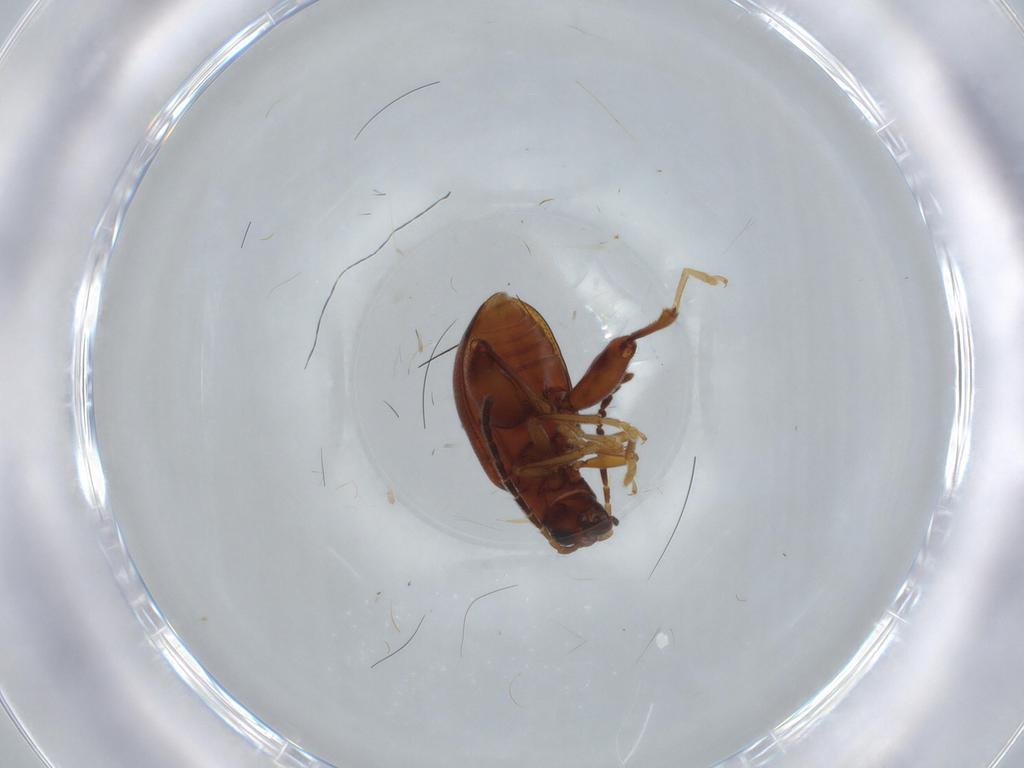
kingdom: Animalia
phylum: Arthropoda
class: Insecta
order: Coleoptera
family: Chrysomelidae
